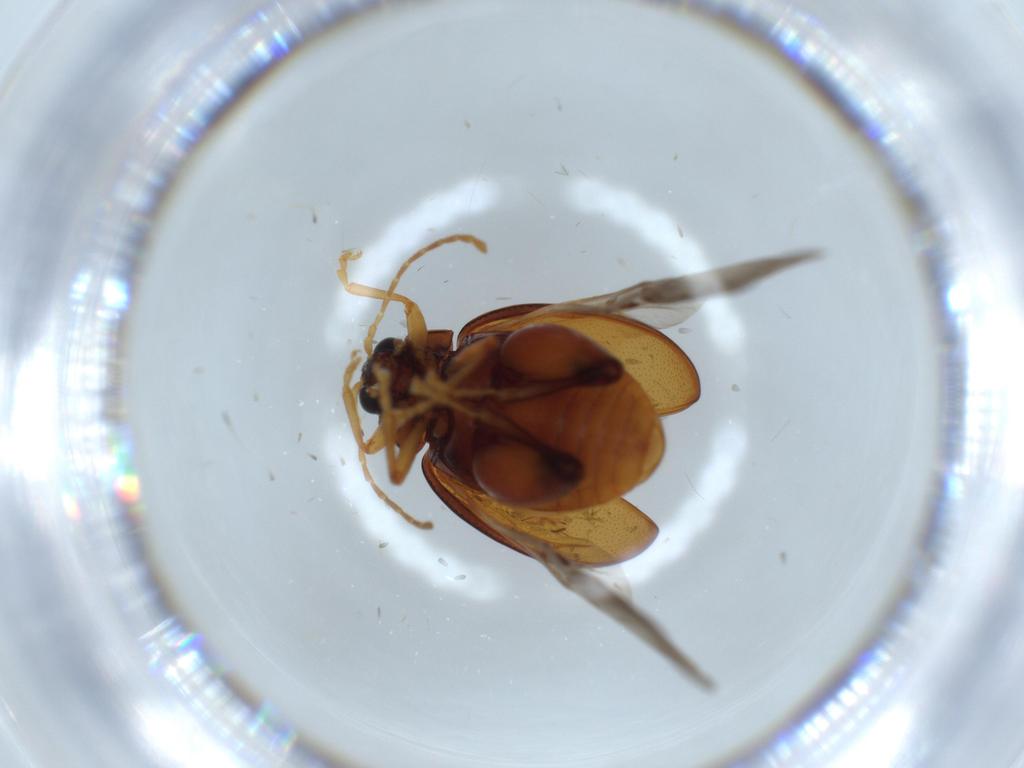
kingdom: Animalia
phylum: Arthropoda
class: Insecta
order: Coleoptera
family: Chrysomelidae
